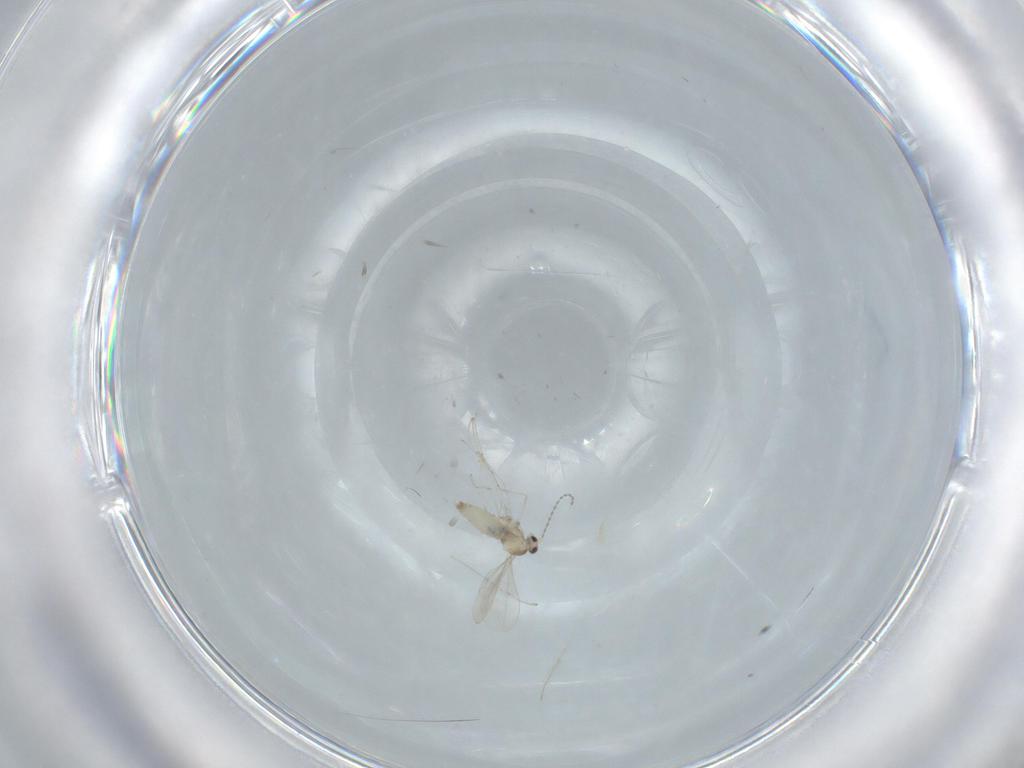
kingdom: Animalia
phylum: Arthropoda
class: Insecta
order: Diptera
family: Sciaridae
